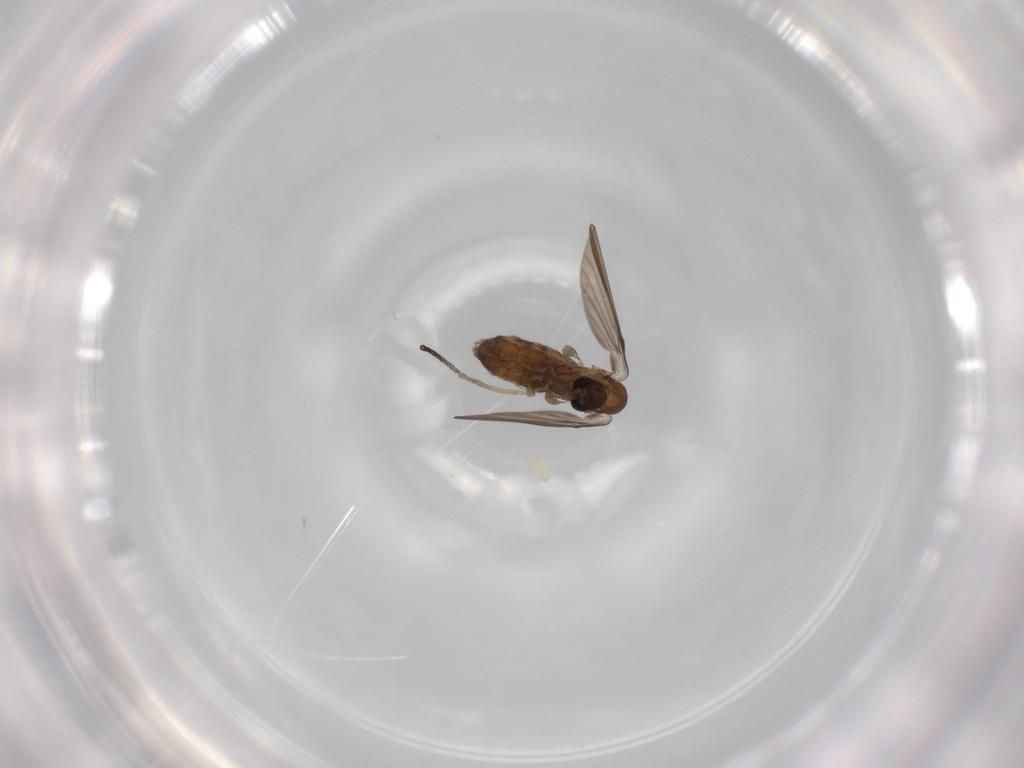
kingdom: Animalia
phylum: Arthropoda
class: Insecta
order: Diptera
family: Psychodidae
